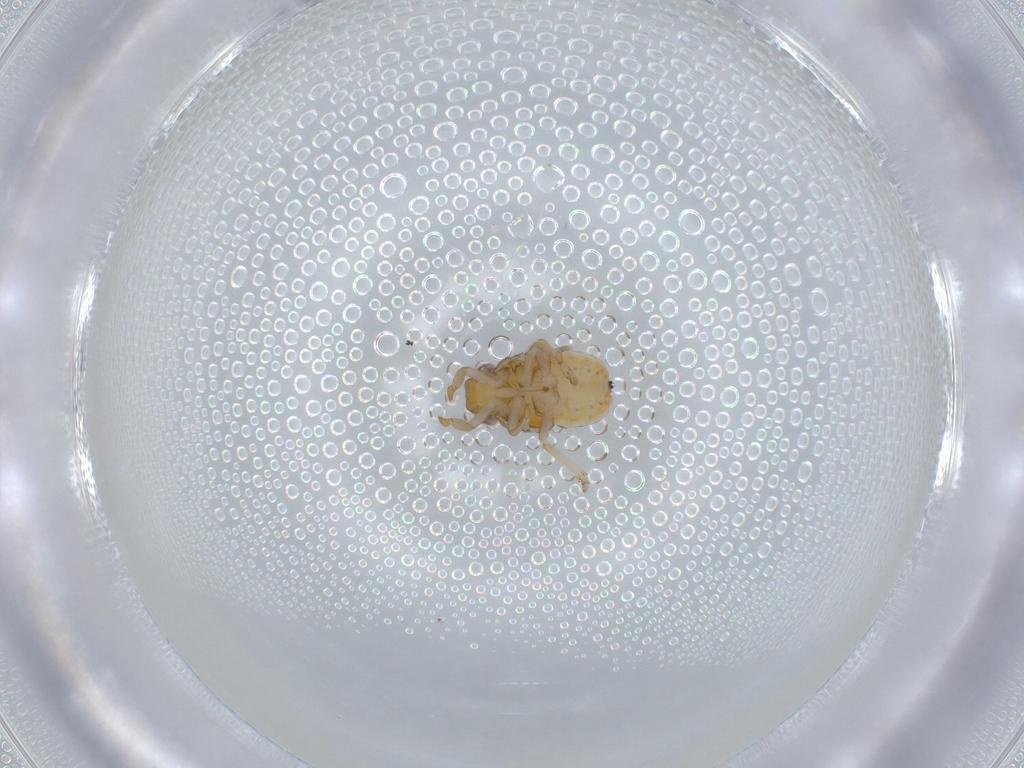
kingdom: Animalia
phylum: Arthropoda
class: Insecta
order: Hemiptera
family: Issidae
